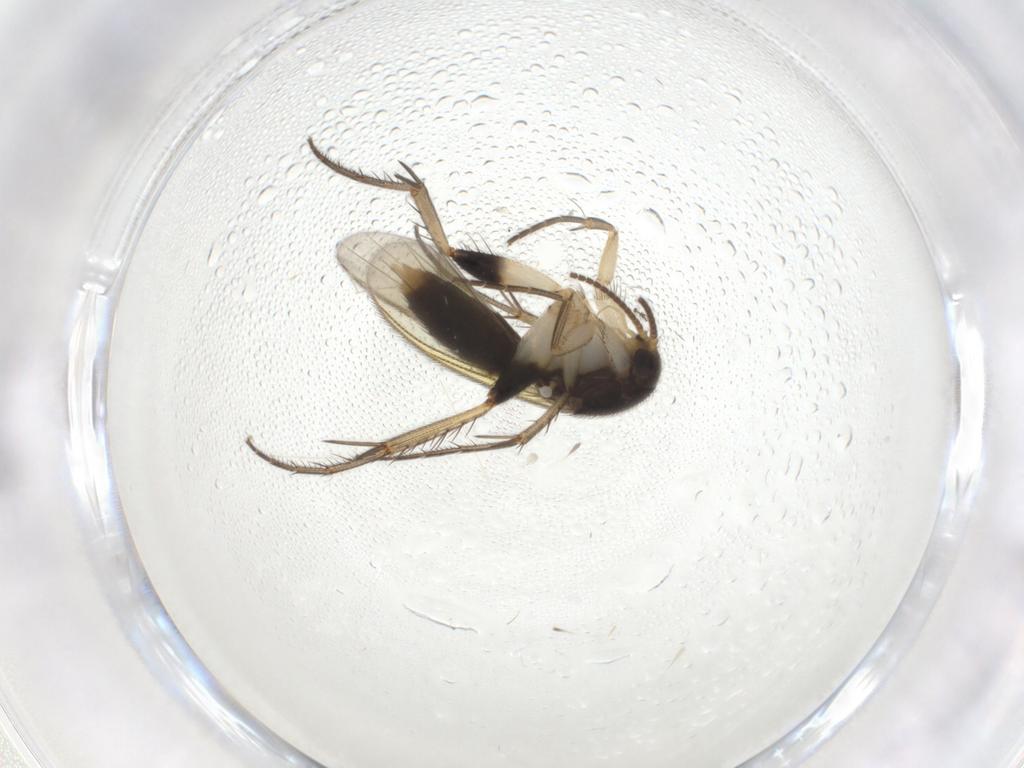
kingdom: Animalia
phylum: Arthropoda
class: Insecta
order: Diptera
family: Mycetophilidae
